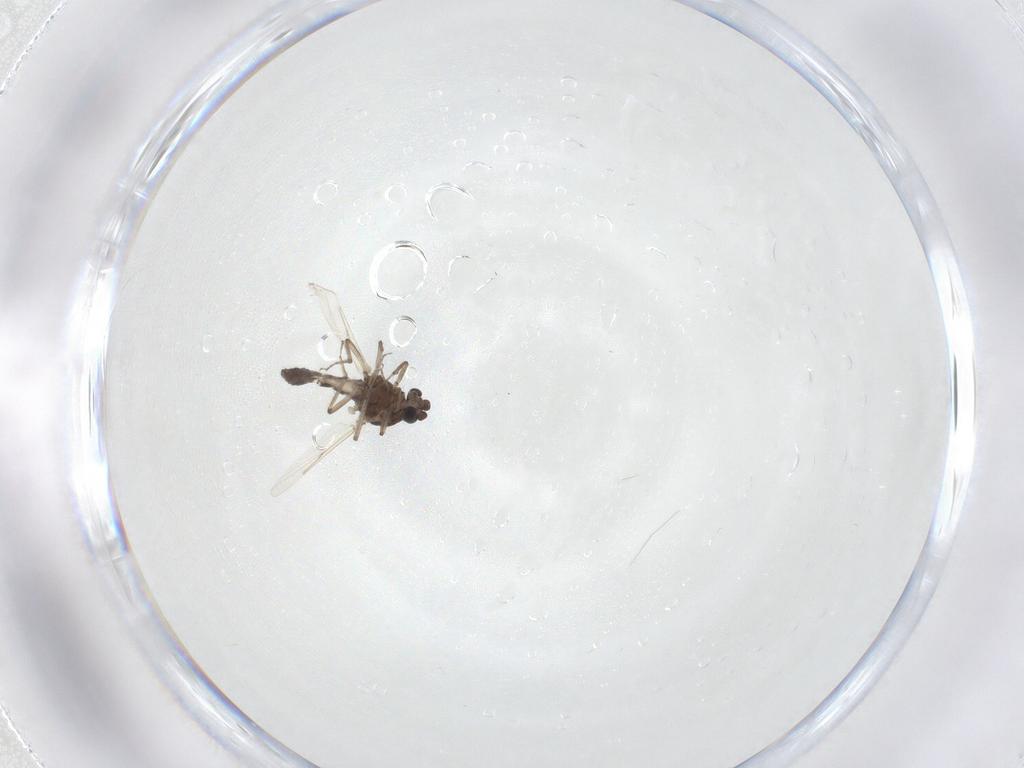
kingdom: Animalia
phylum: Arthropoda
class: Insecta
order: Diptera
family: Ceratopogonidae
